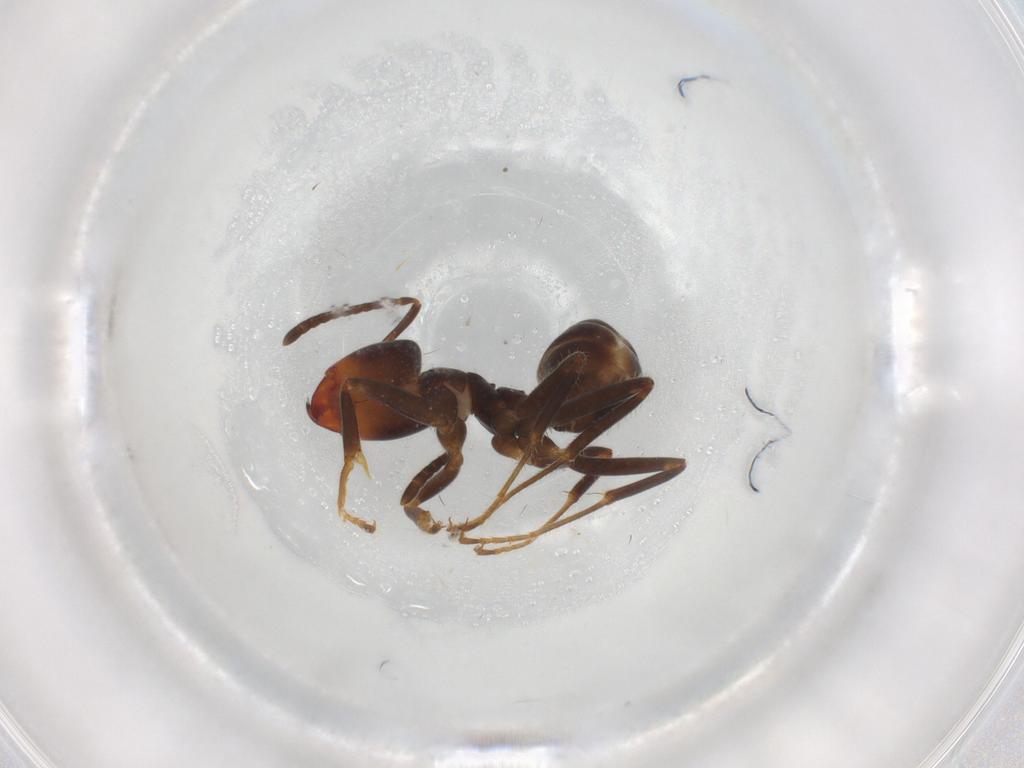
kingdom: Animalia
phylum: Arthropoda
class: Insecta
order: Hymenoptera
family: Formicidae
